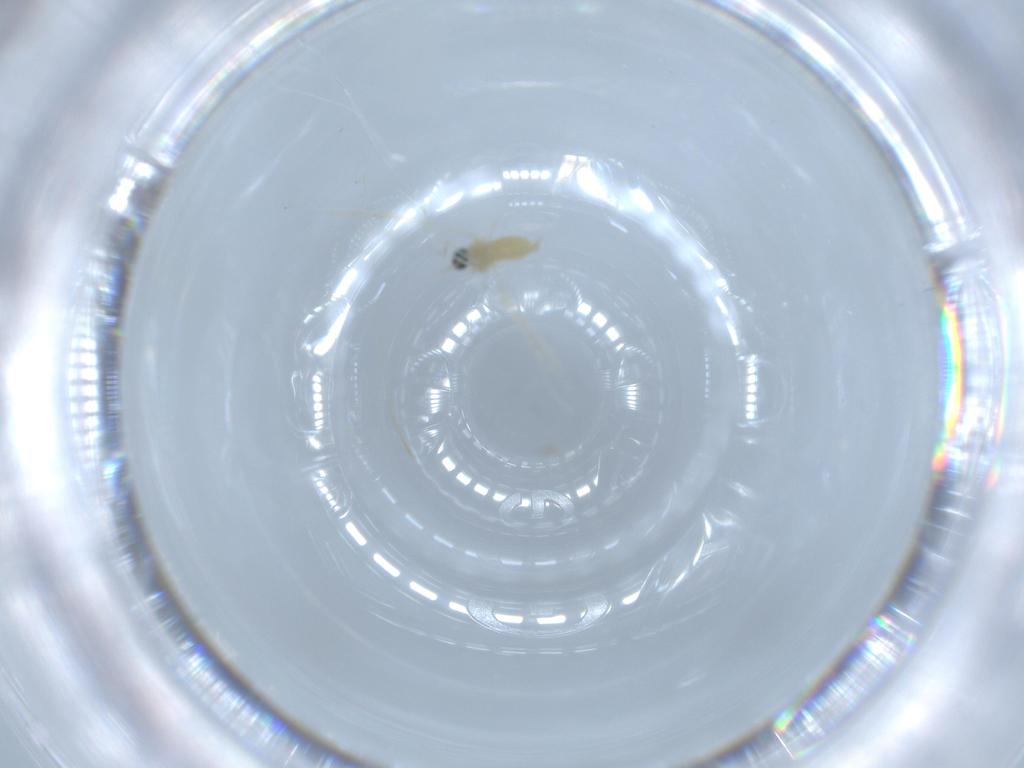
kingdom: Animalia
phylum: Arthropoda
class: Insecta
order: Diptera
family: Cecidomyiidae
